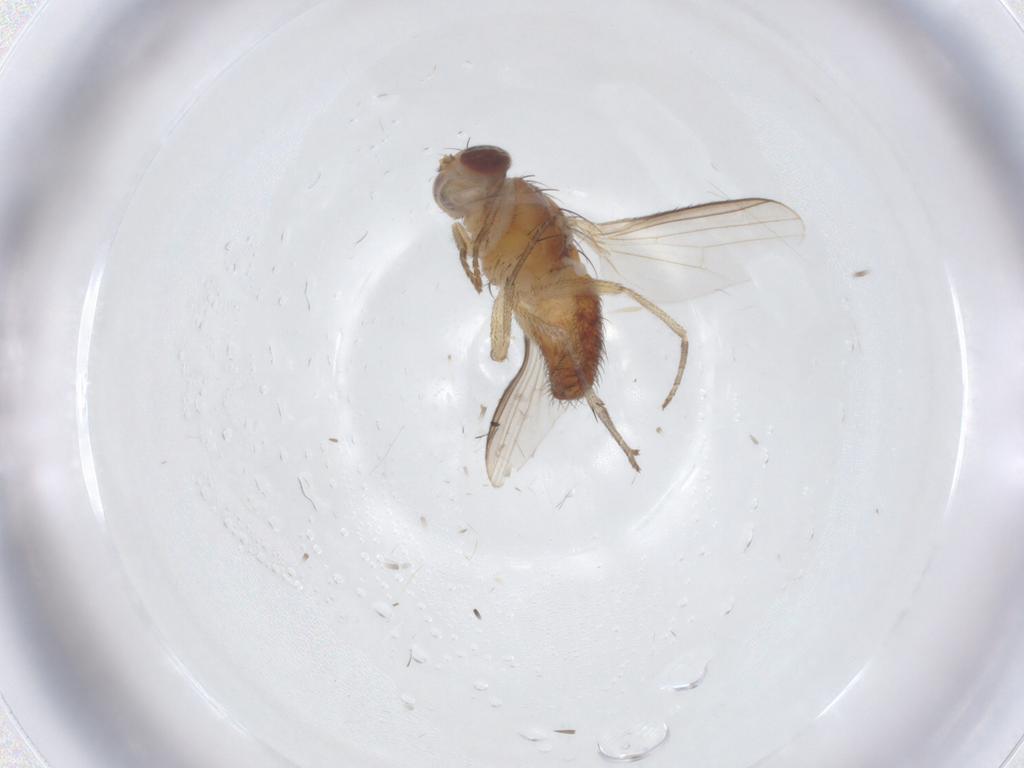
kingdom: Animalia
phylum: Arthropoda
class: Insecta
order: Diptera
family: Heleomyzidae
